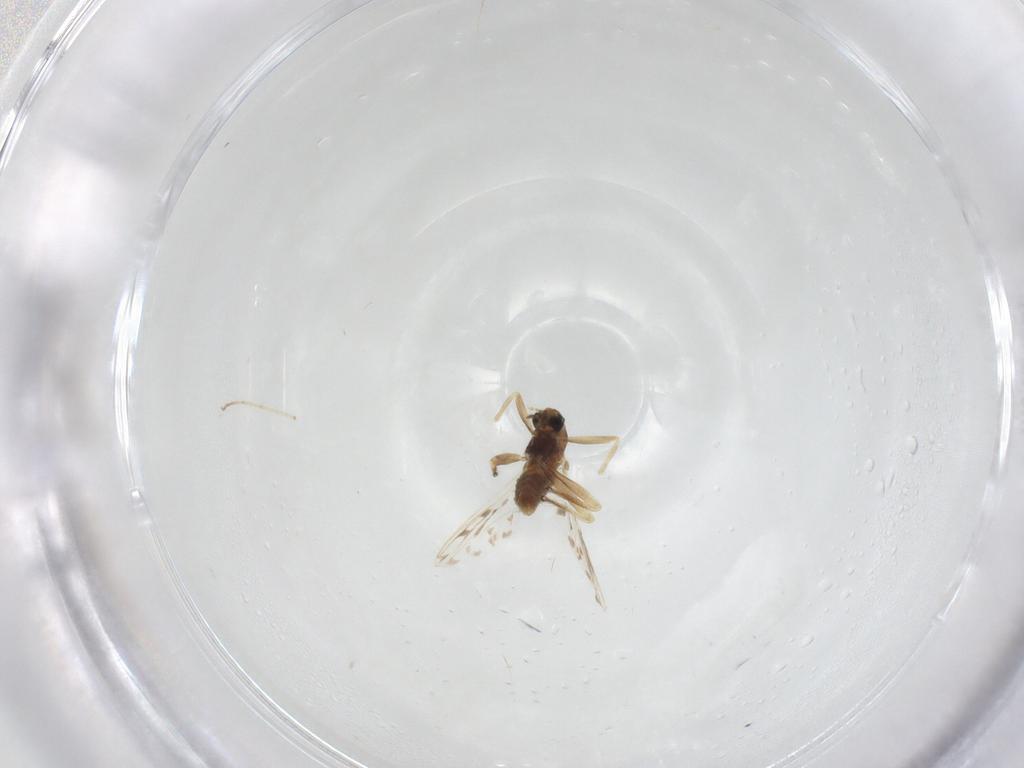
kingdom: Animalia
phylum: Arthropoda
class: Insecta
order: Diptera
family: Chironomidae
